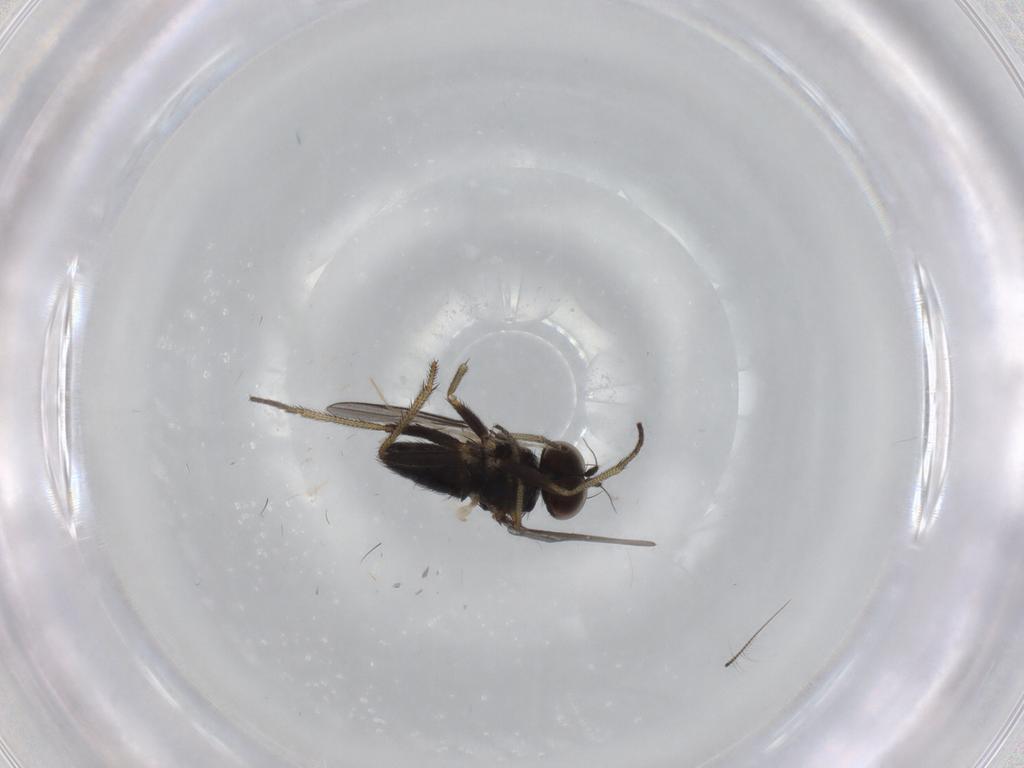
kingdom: Animalia
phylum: Arthropoda
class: Insecta
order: Diptera
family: Dolichopodidae
